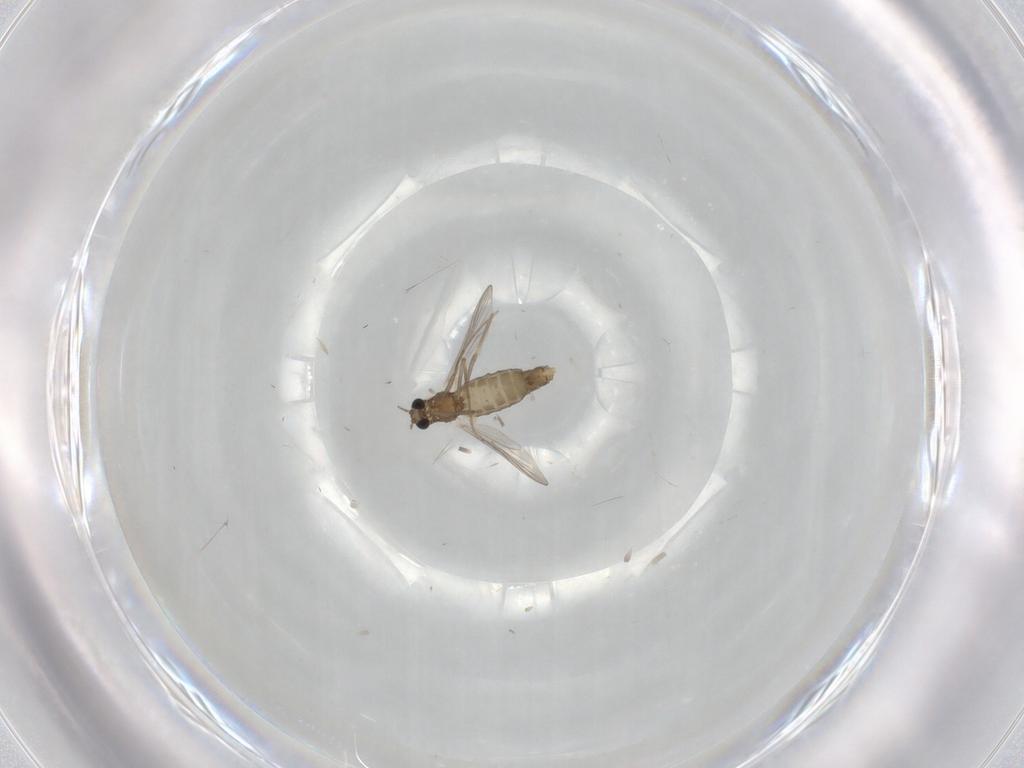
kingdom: Animalia
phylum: Arthropoda
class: Insecta
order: Diptera
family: Chironomidae
